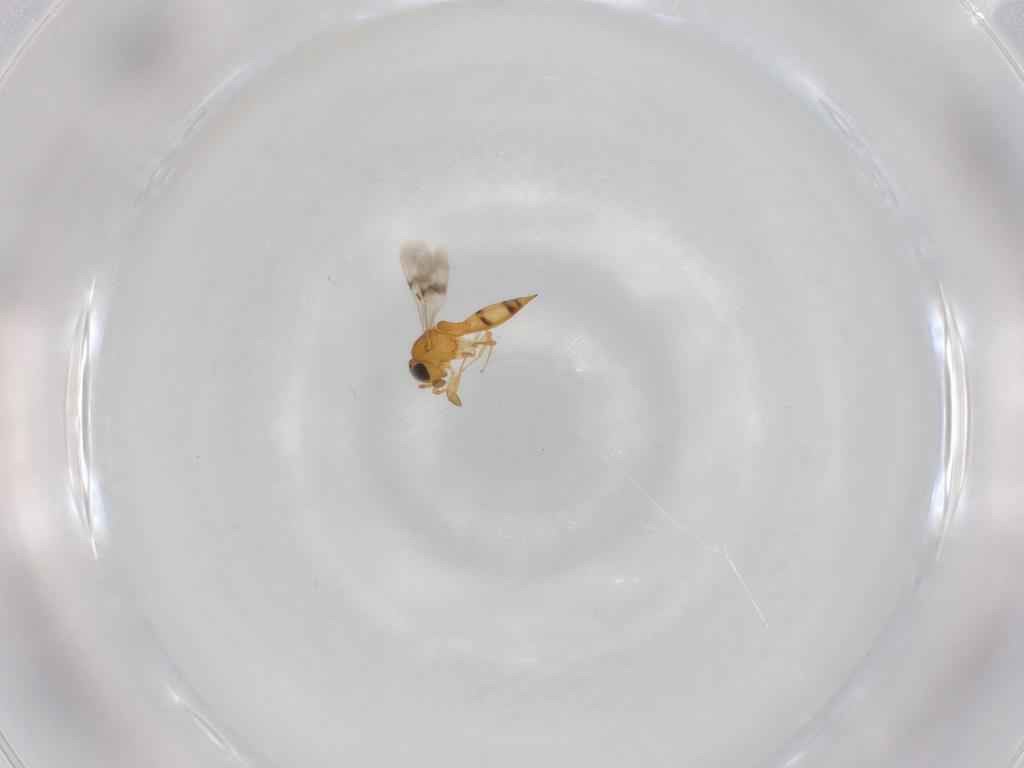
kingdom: Animalia
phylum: Arthropoda
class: Insecta
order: Hymenoptera
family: Scelionidae
